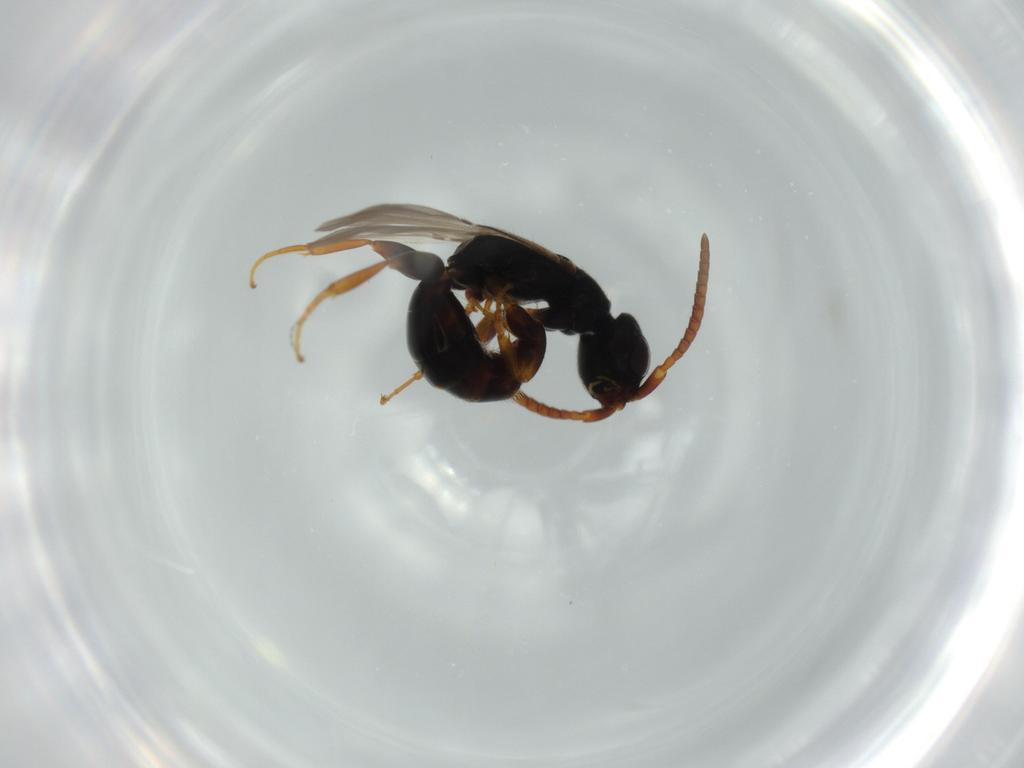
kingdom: Animalia
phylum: Arthropoda
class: Insecta
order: Hymenoptera
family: Bethylidae
